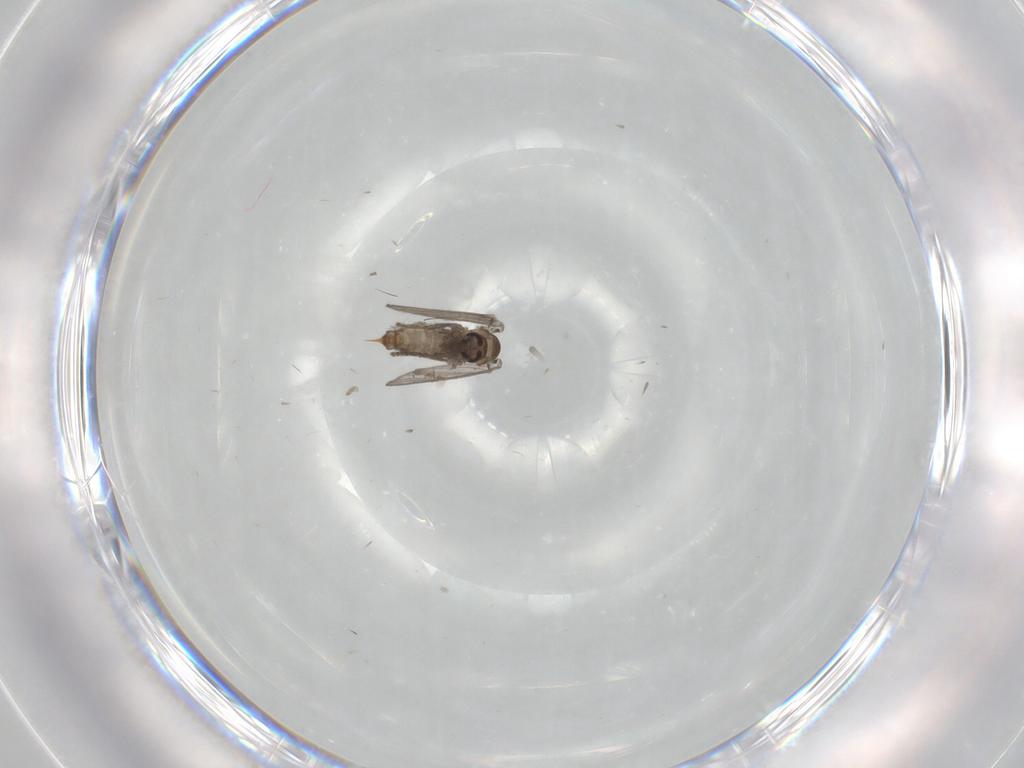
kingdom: Animalia
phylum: Arthropoda
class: Insecta
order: Diptera
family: Psychodidae
